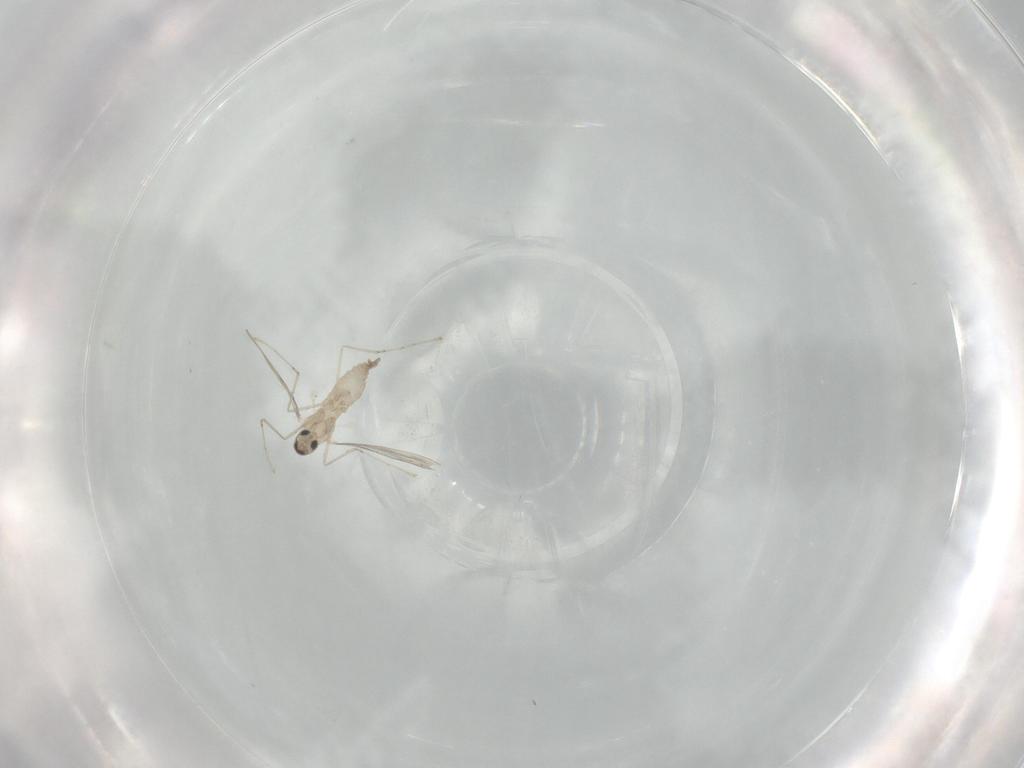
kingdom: Animalia
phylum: Arthropoda
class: Insecta
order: Diptera
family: Cecidomyiidae
